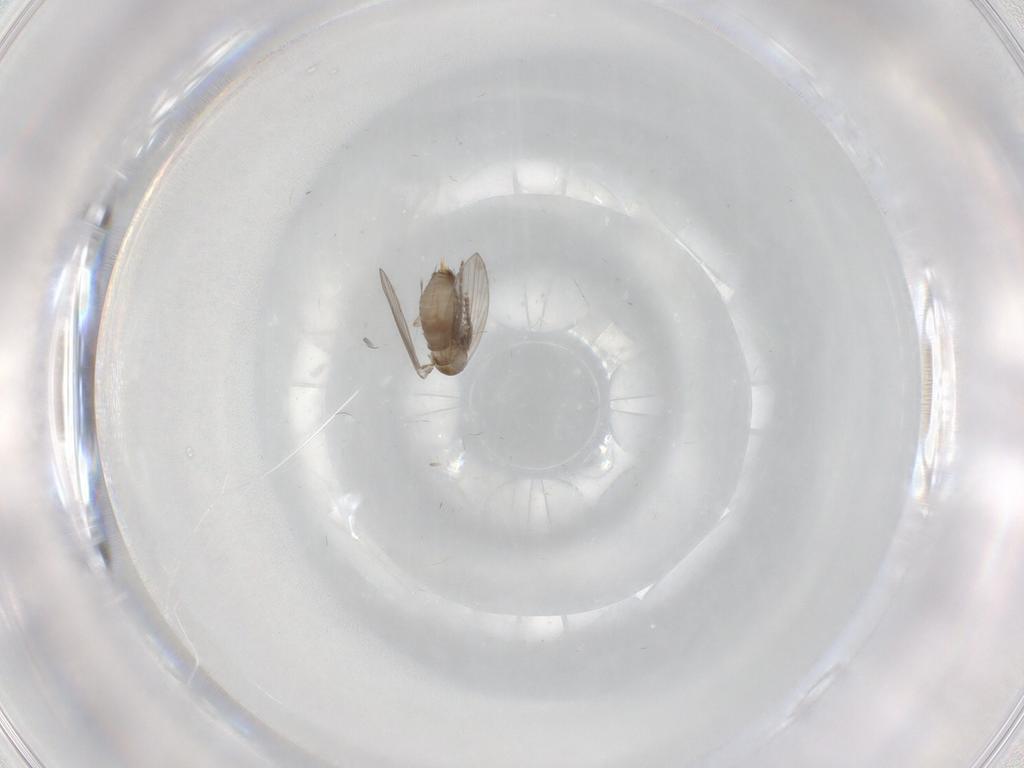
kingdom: Animalia
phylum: Arthropoda
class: Insecta
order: Diptera
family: Psychodidae
